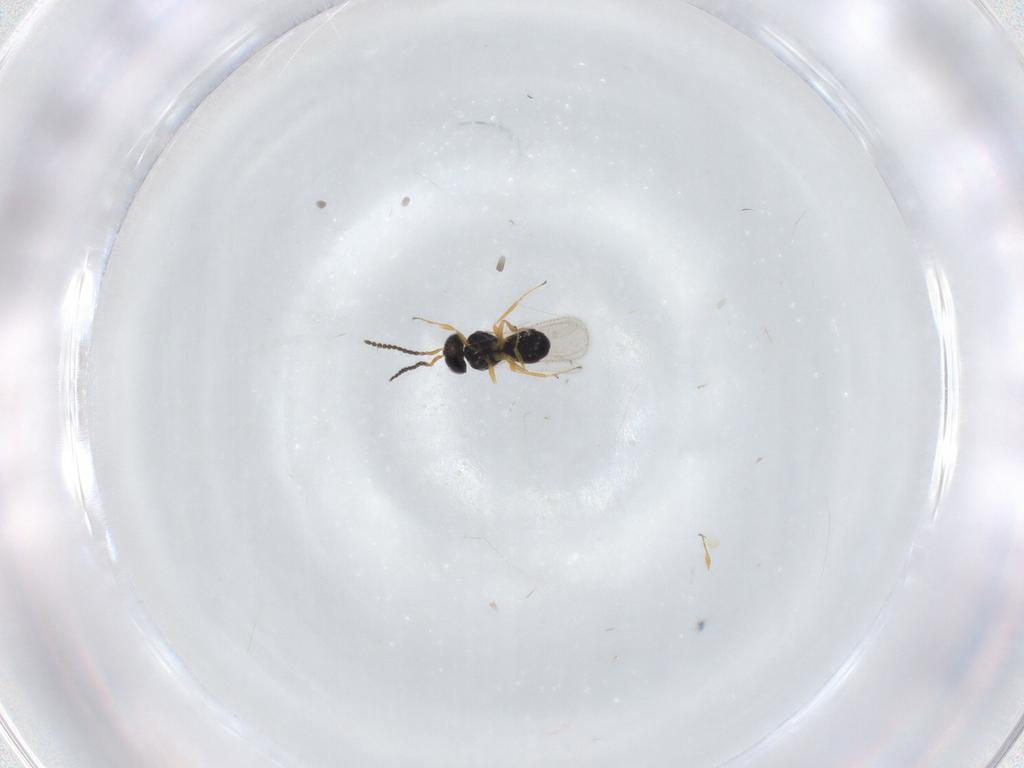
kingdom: Animalia
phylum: Arthropoda
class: Insecta
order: Hymenoptera
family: Scelionidae
